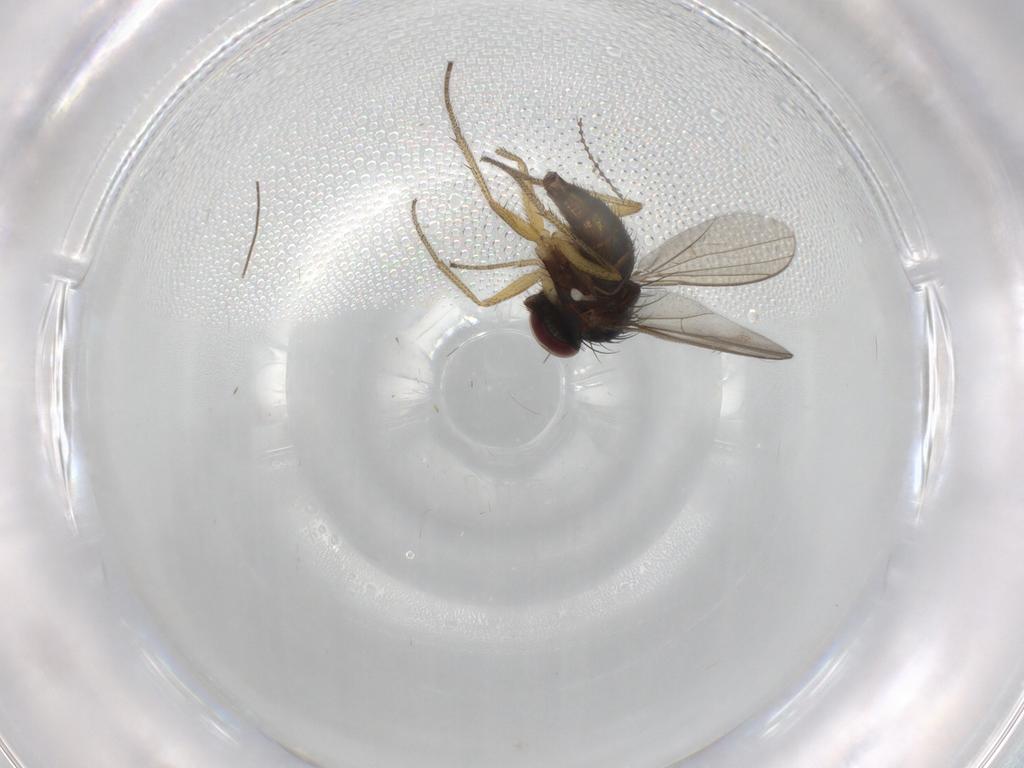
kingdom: Animalia
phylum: Arthropoda
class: Insecta
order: Diptera
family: Chironomidae
